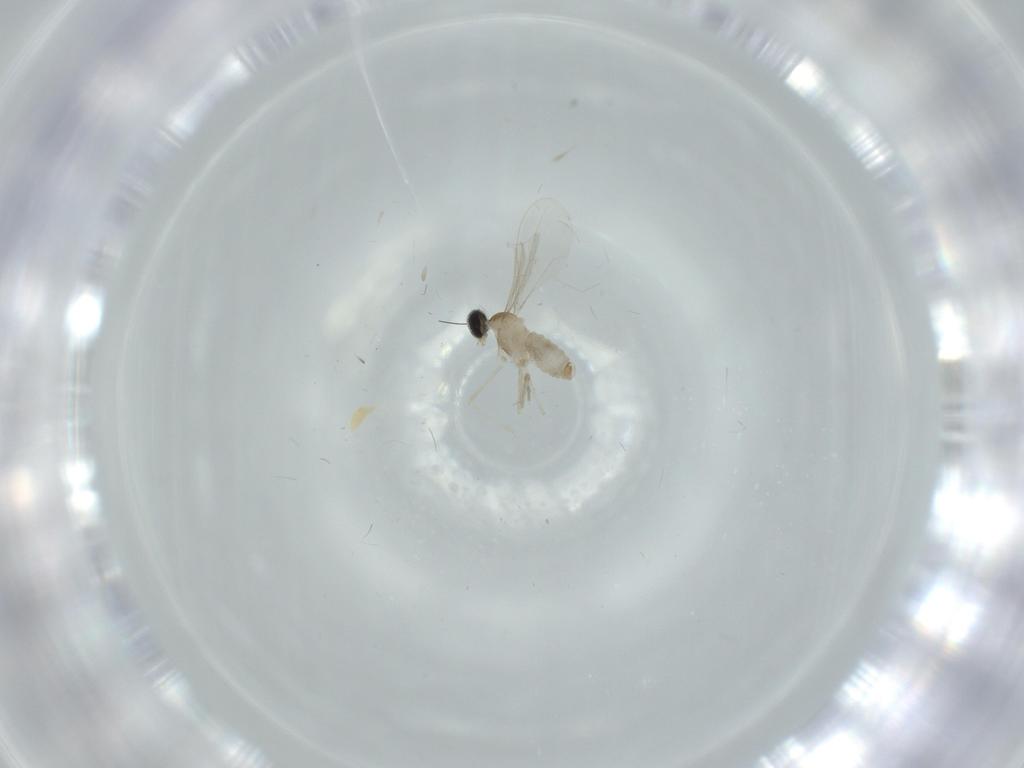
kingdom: Animalia
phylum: Arthropoda
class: Insecta
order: Diptera
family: Cecidomyiidae
